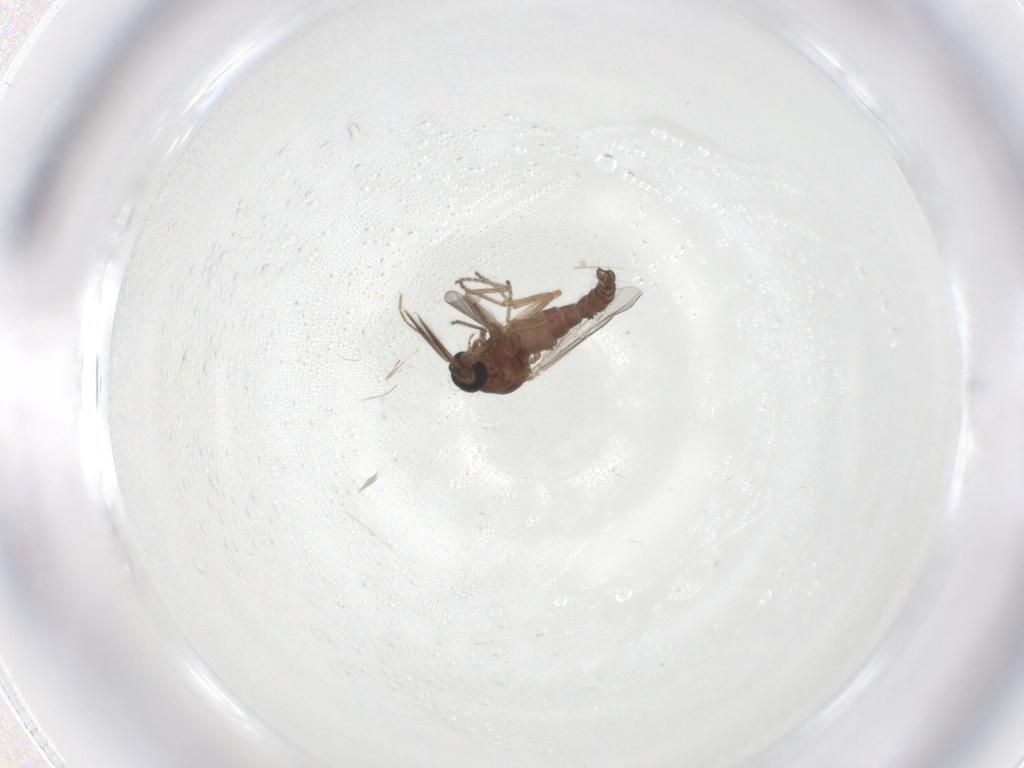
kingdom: Animalia
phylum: Arthropoda
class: Insecta
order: Diptera
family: Ceratopogonidae
